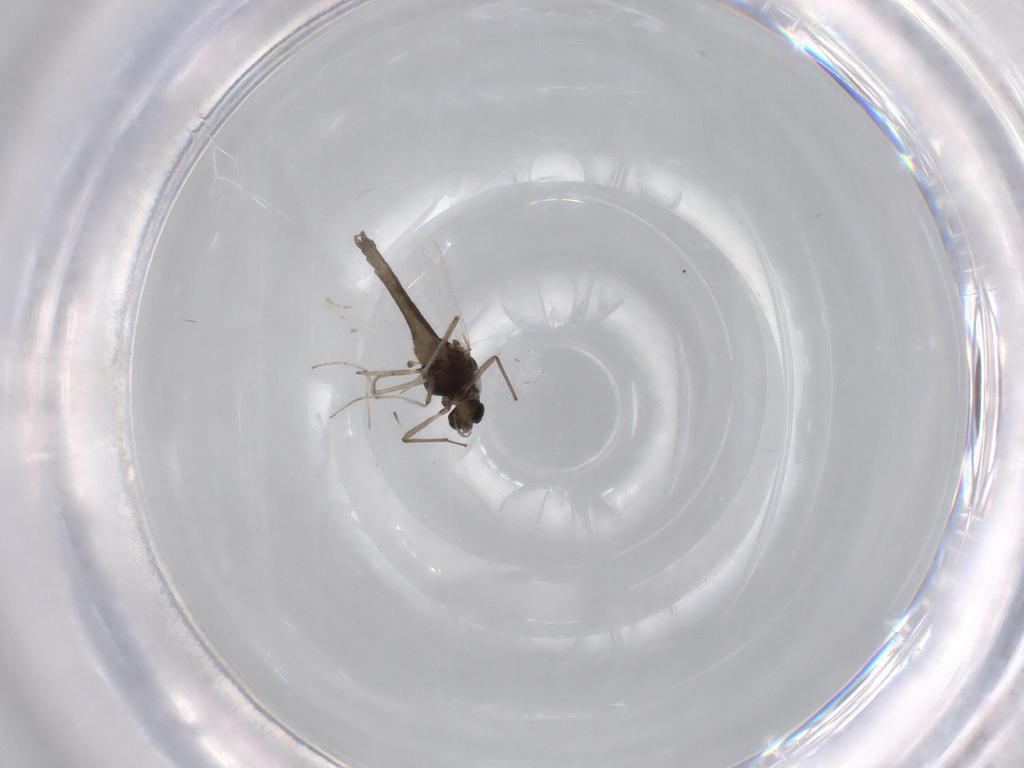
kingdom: Animalia
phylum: Arthropoda
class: Insecta
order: Diptera
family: Chironomidae
